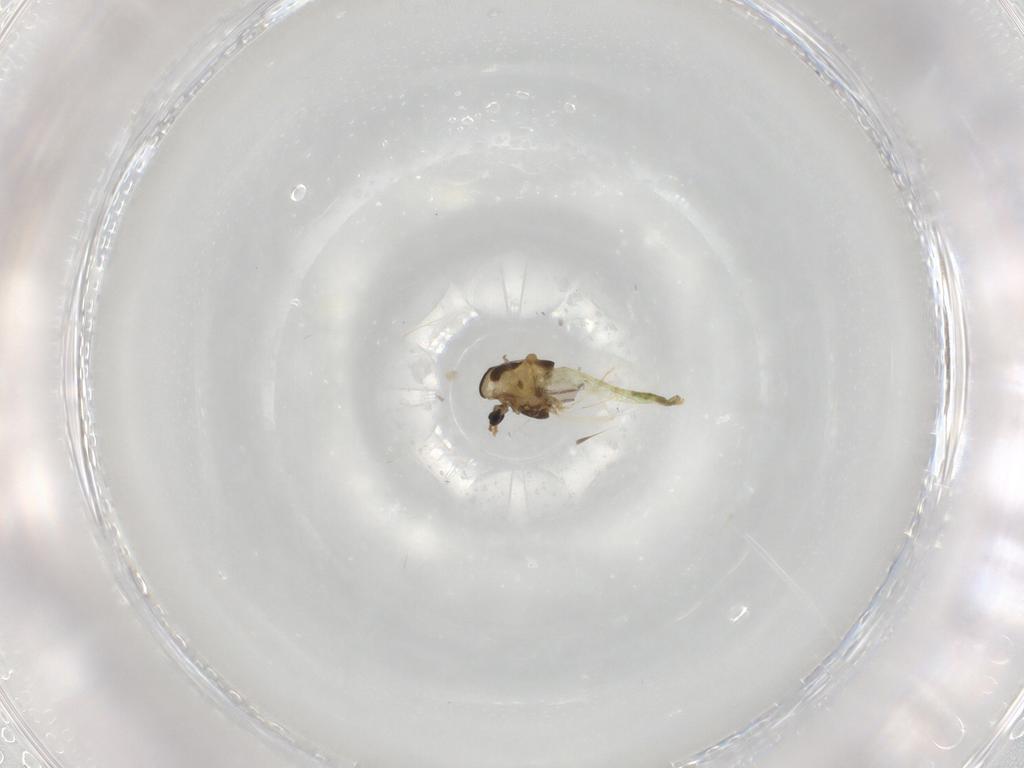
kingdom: Animalia
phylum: Arthropoda
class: Insecta
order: Diptera
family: Chironomidae
